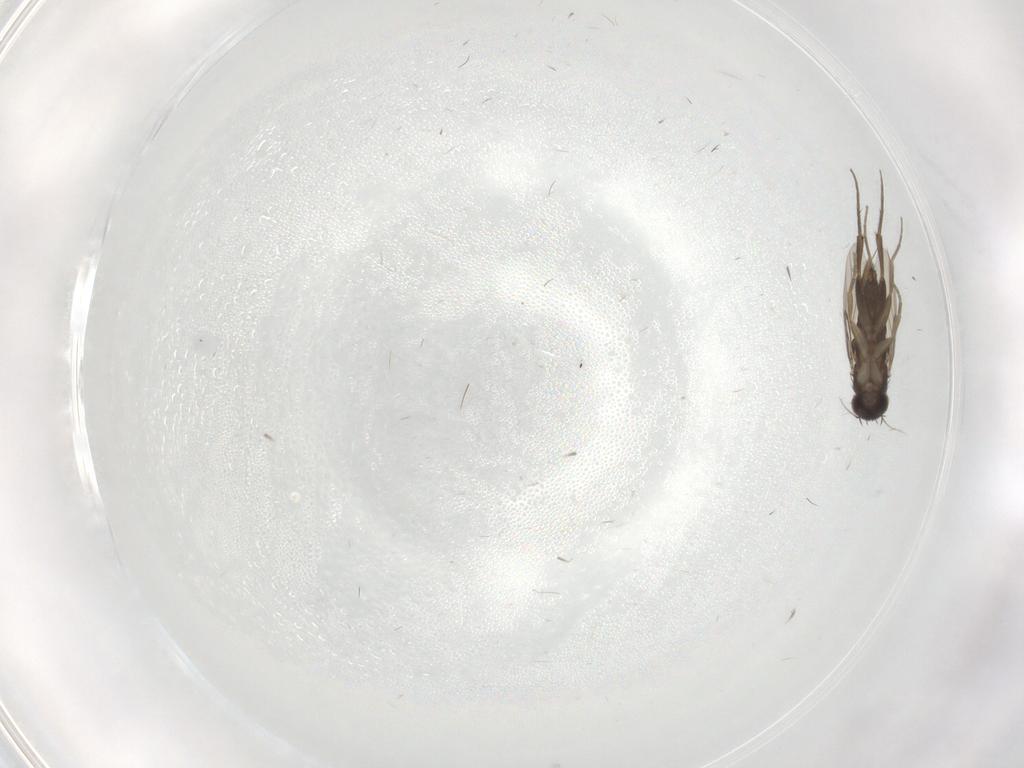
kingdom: Animalia
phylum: Arthropoda
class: Insecta
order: Diptera
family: Phoridae
